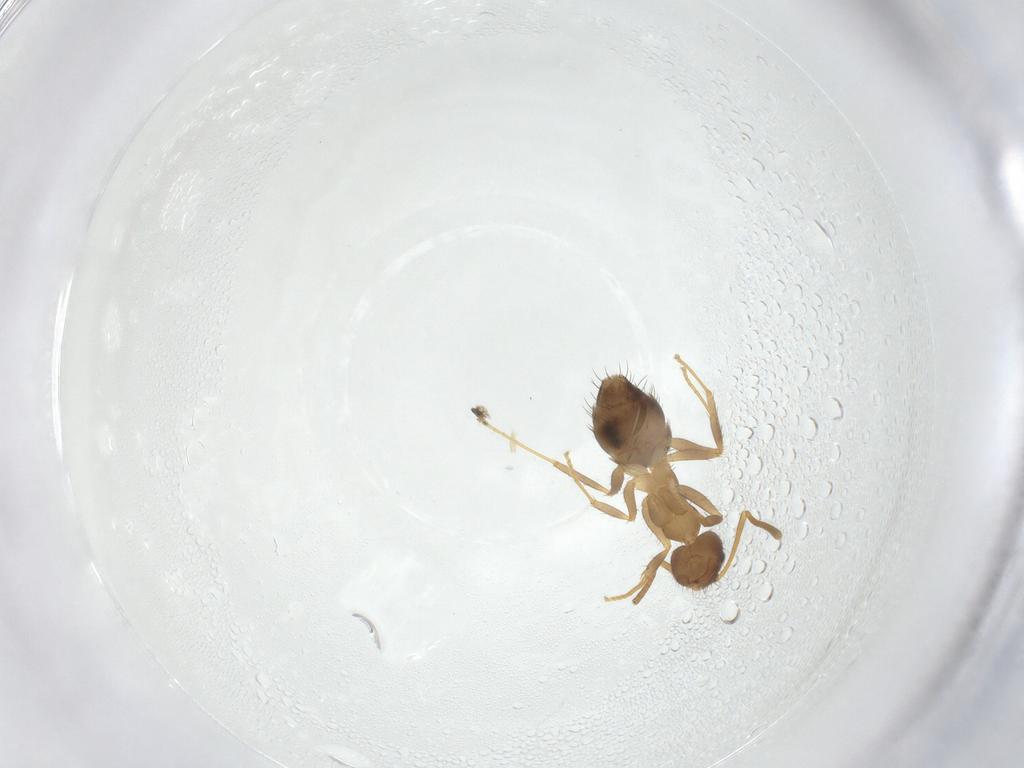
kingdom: Animalia
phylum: Arthropoda
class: Insecta
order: Hymenoptera
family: Formicidae
